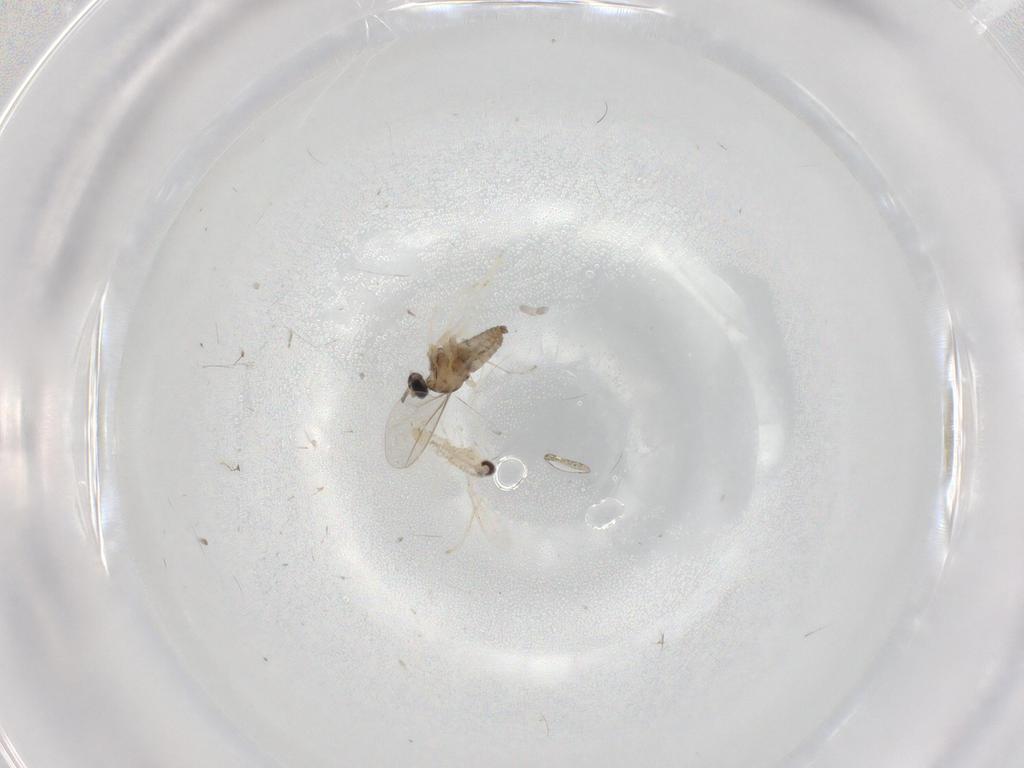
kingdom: Animalia
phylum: Arthropoda
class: Insecta
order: Diptera
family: Cecidomyiidae
